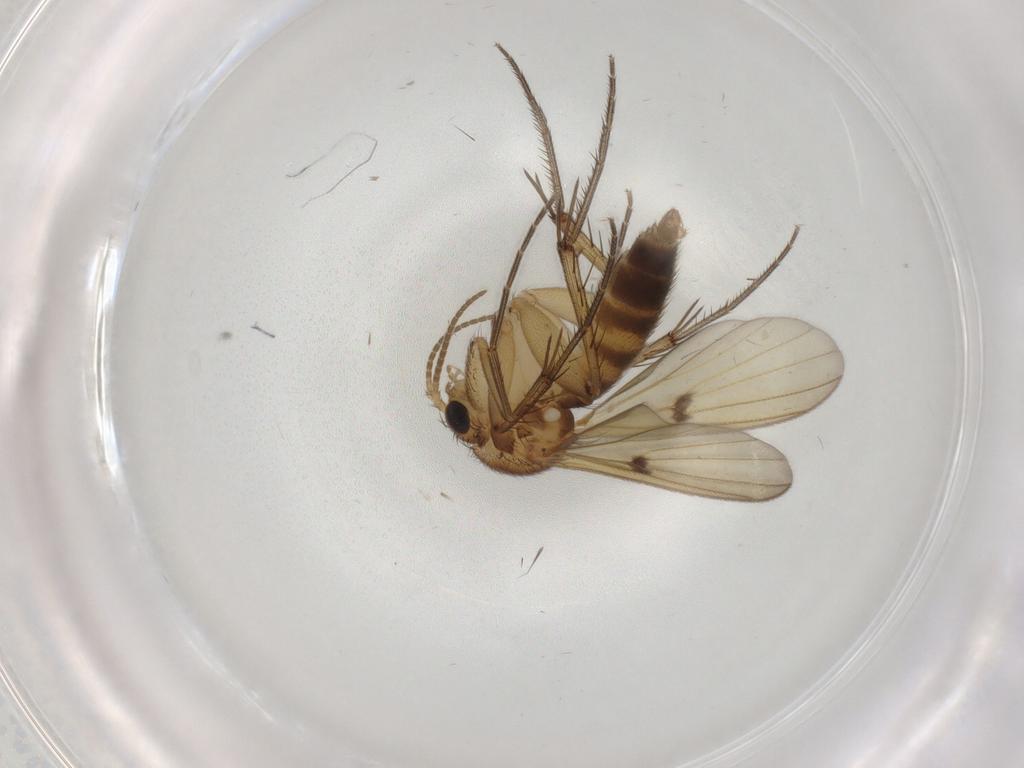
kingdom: Animalia
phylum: Arthropoda
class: Insecta
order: Diptera
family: Mycetophilidae
